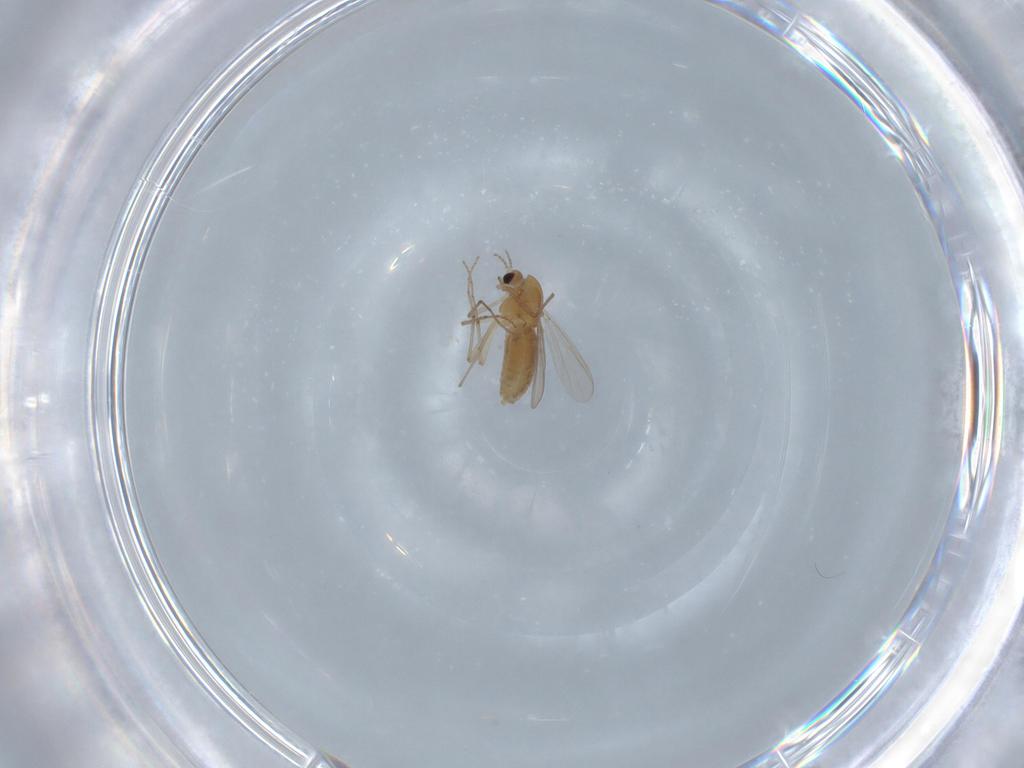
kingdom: Animalia
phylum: Arthropoda
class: Insecta
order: Diptera
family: Chironomidae
